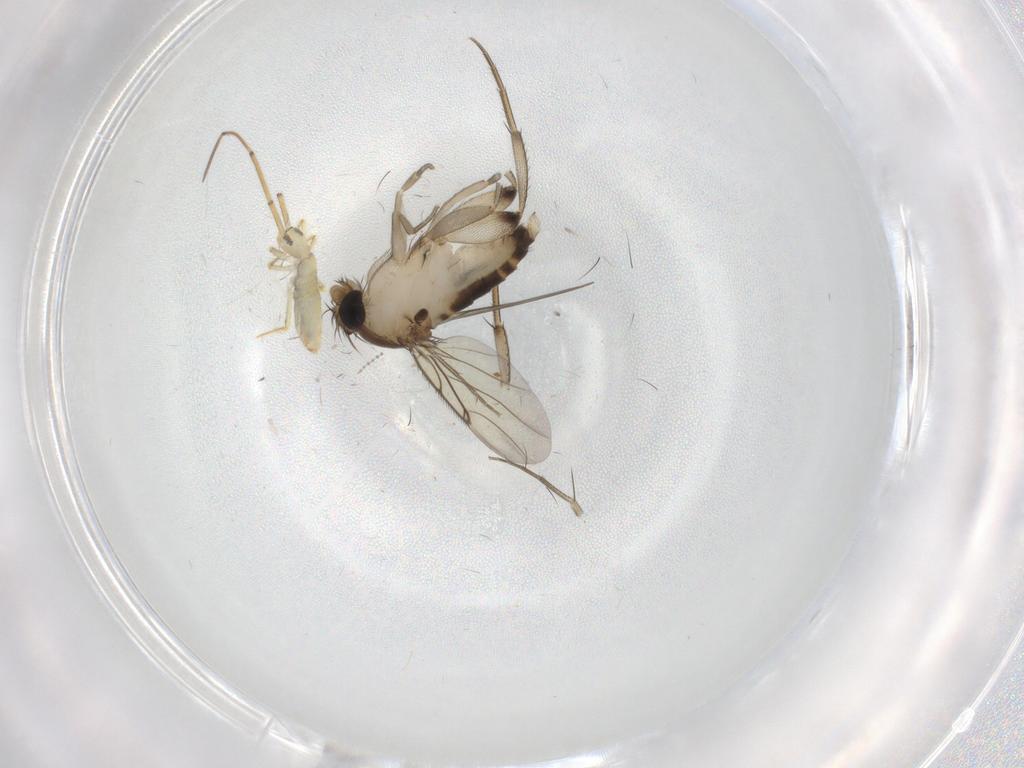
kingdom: Animalia
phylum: Arthropoda
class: Insecta
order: Diptera
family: Phoridae
